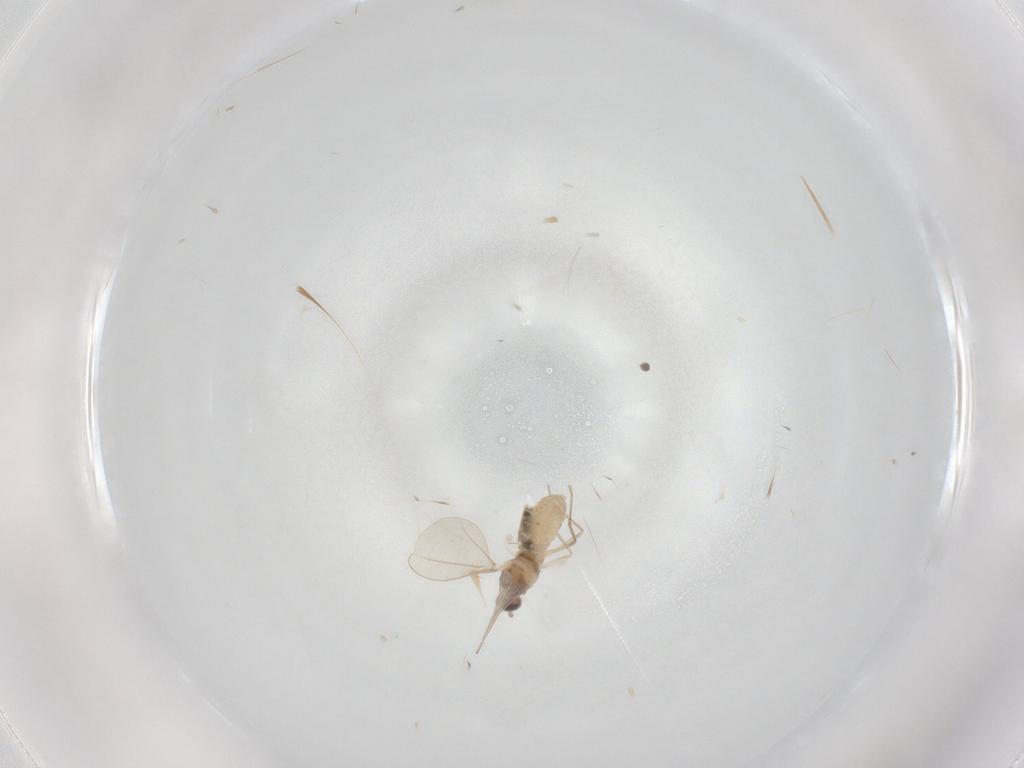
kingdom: Animalia
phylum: Arthropoda
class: Insecta
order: Diptera
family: Cecidomyiidae
